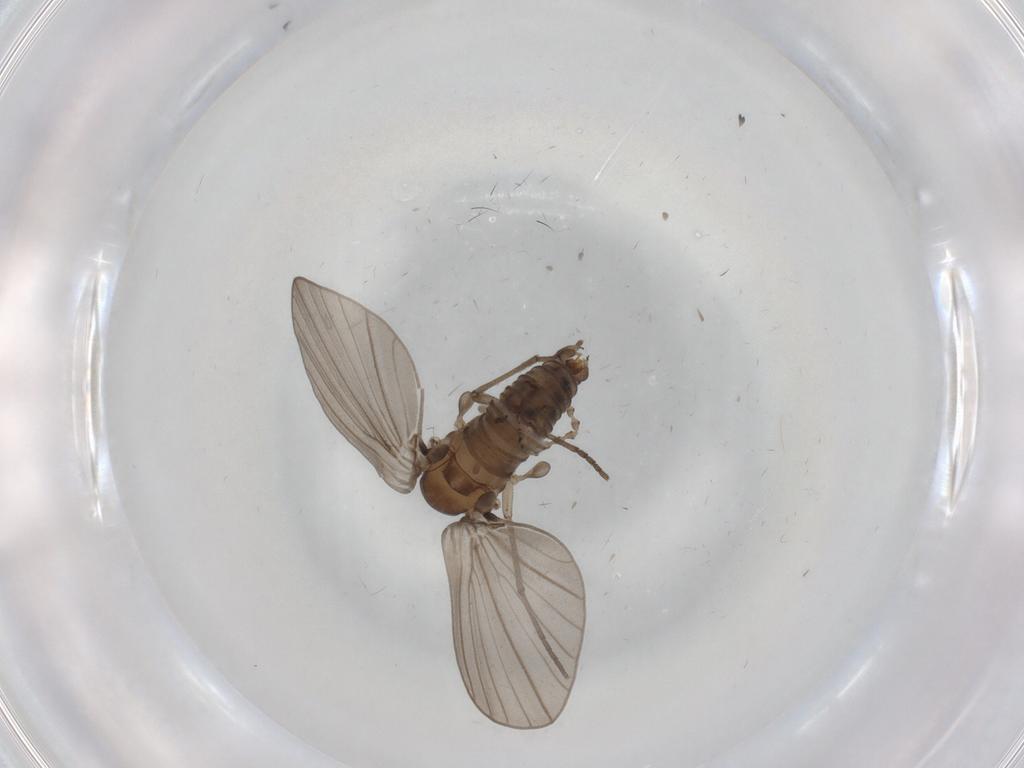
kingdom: Animalia
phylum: Arthropoda
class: Insecta
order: Diptera
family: Psychodidae
